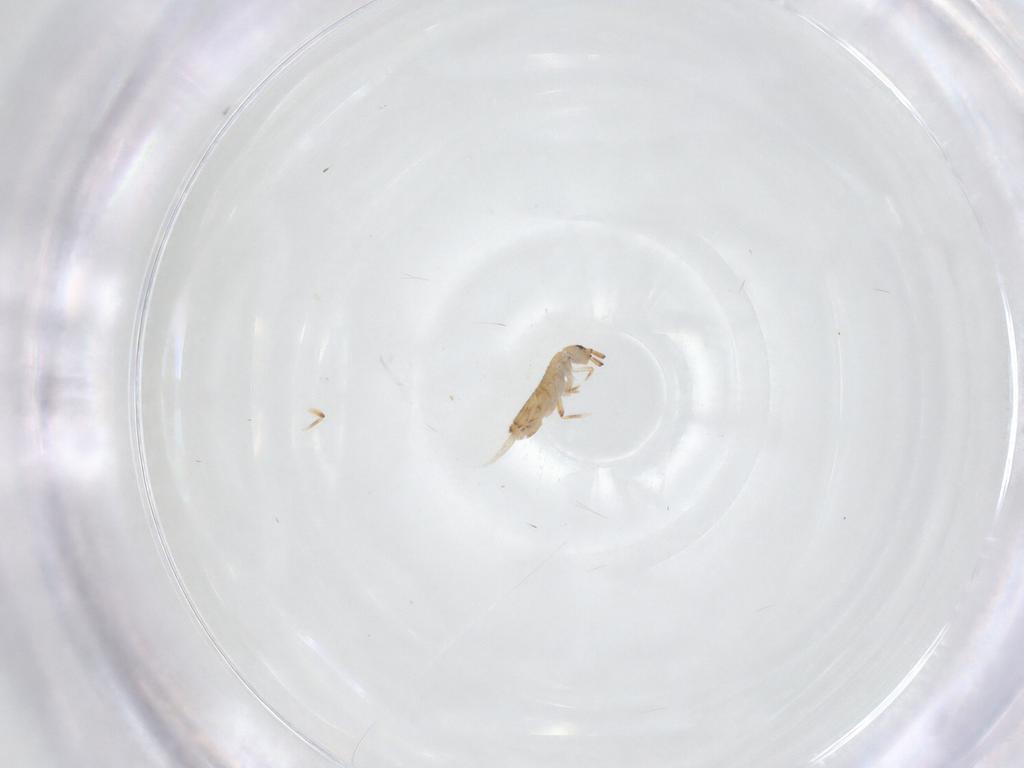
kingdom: Animalia
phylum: Arthropoda
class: Collembola
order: Entomobryomorpha
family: Entomobryidae
